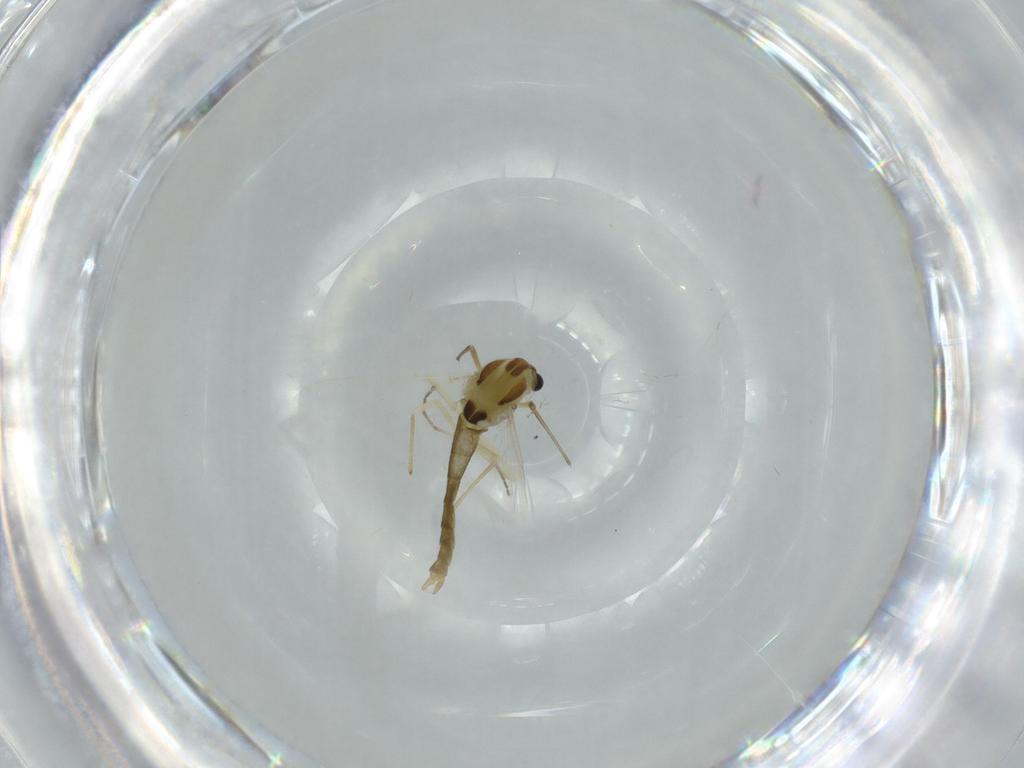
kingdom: Animalia
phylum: Arthropoda
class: Insecta
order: Diptera
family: Chironomidae
